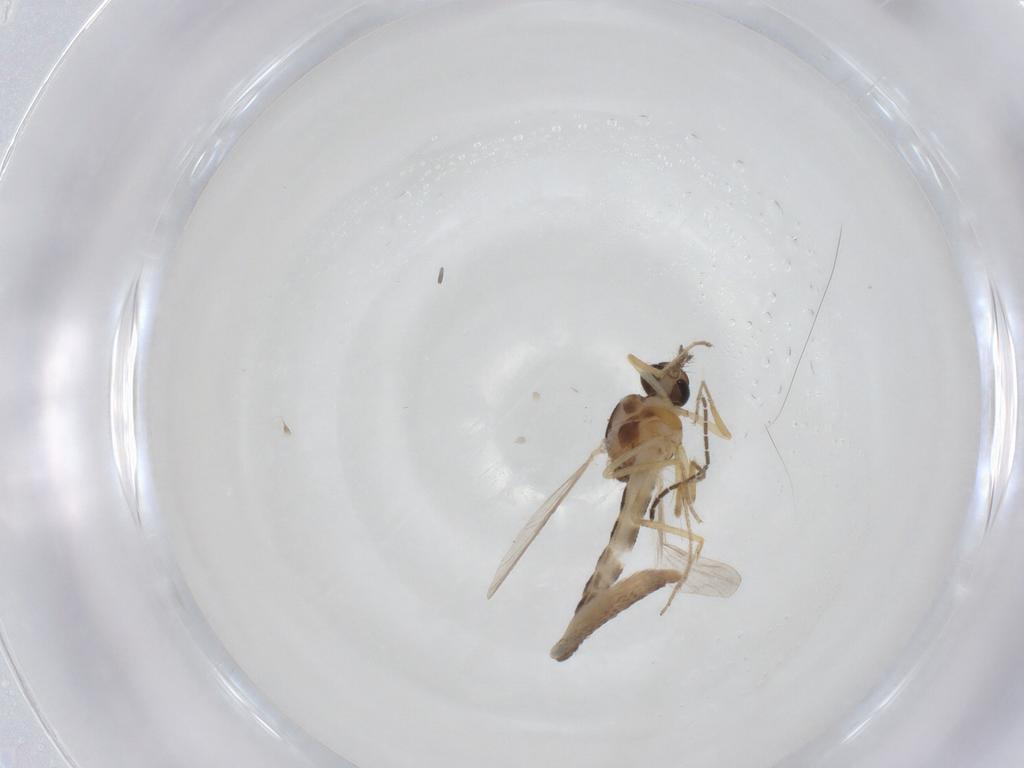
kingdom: Animalia
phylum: Arthropoda
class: Insecta
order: Diptera
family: Ceratopogonidae
